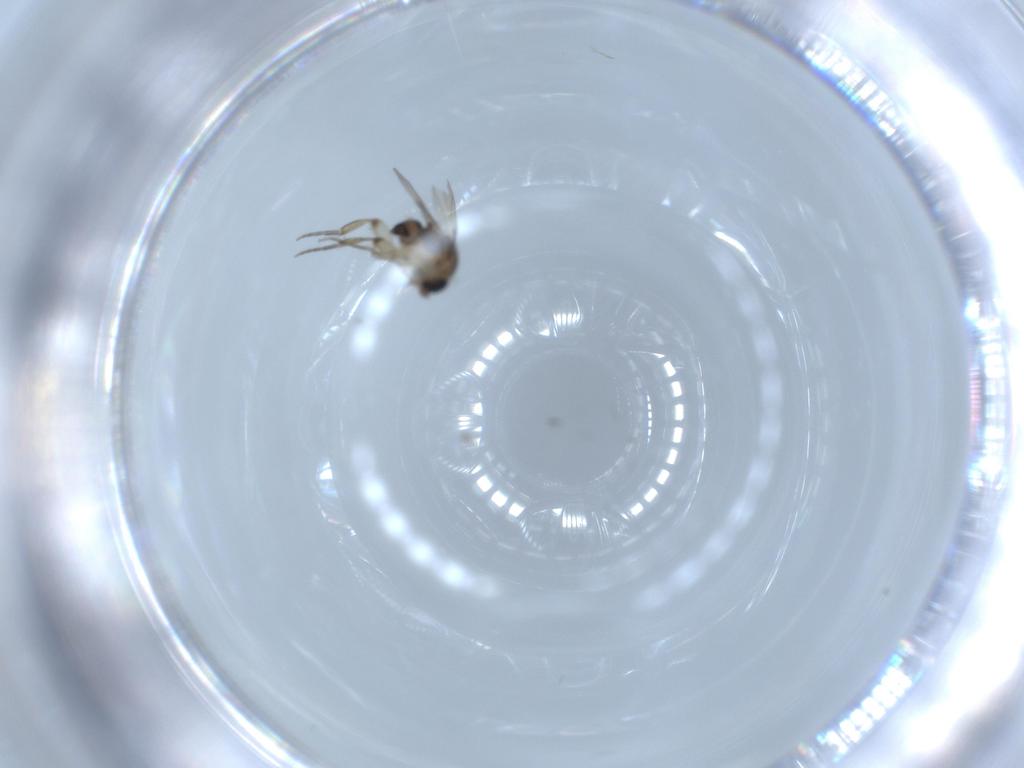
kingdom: Animalia
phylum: Arthropoda
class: Insecta
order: Diptera
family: Phoridae
